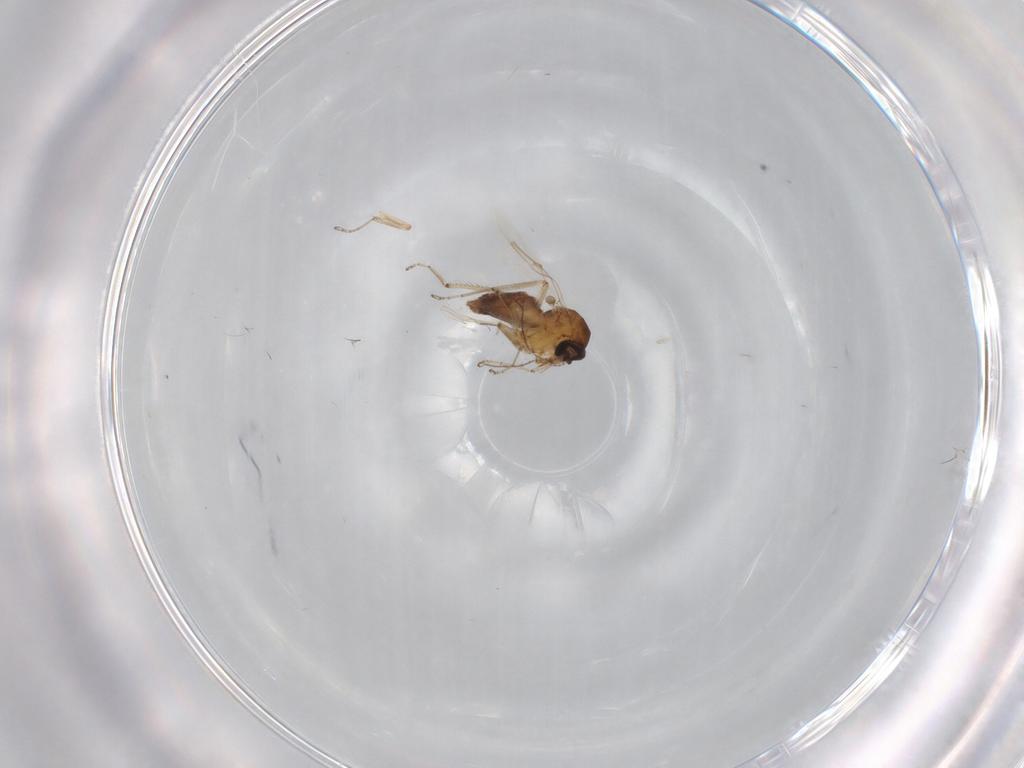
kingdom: Animalia
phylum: Arthropoda
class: Insecta
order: Diptera
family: Ceratopogonidae
